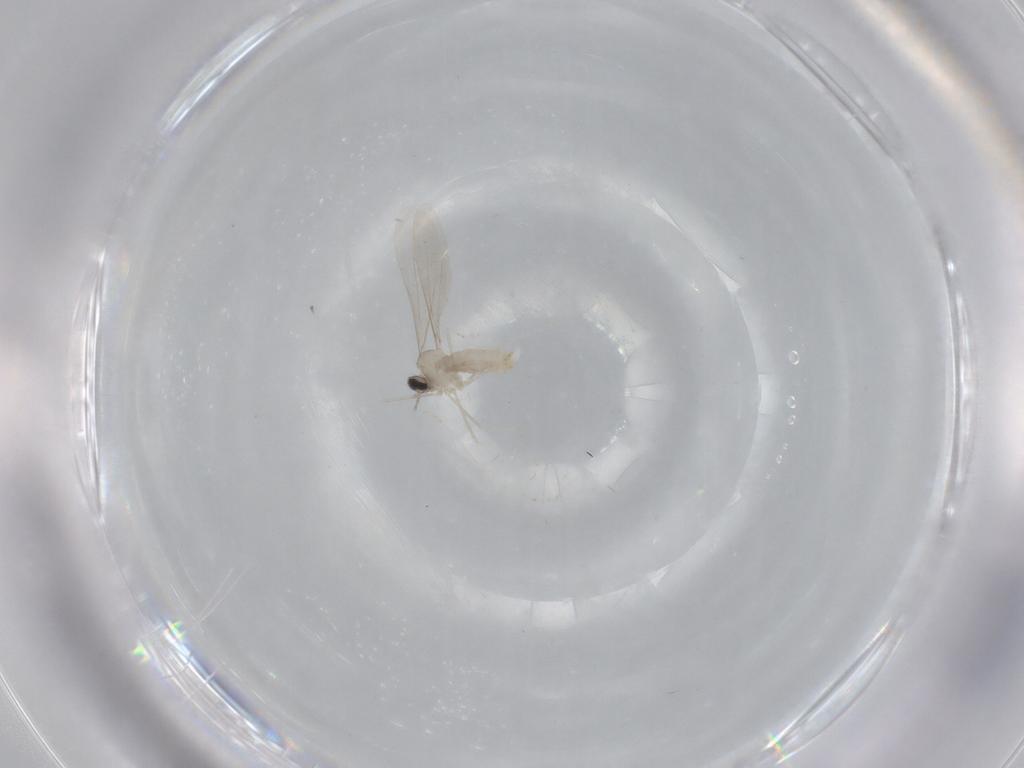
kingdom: Animalia
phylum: Arthropoda
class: Insecta
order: Diptera
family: Cecidomyiidae
